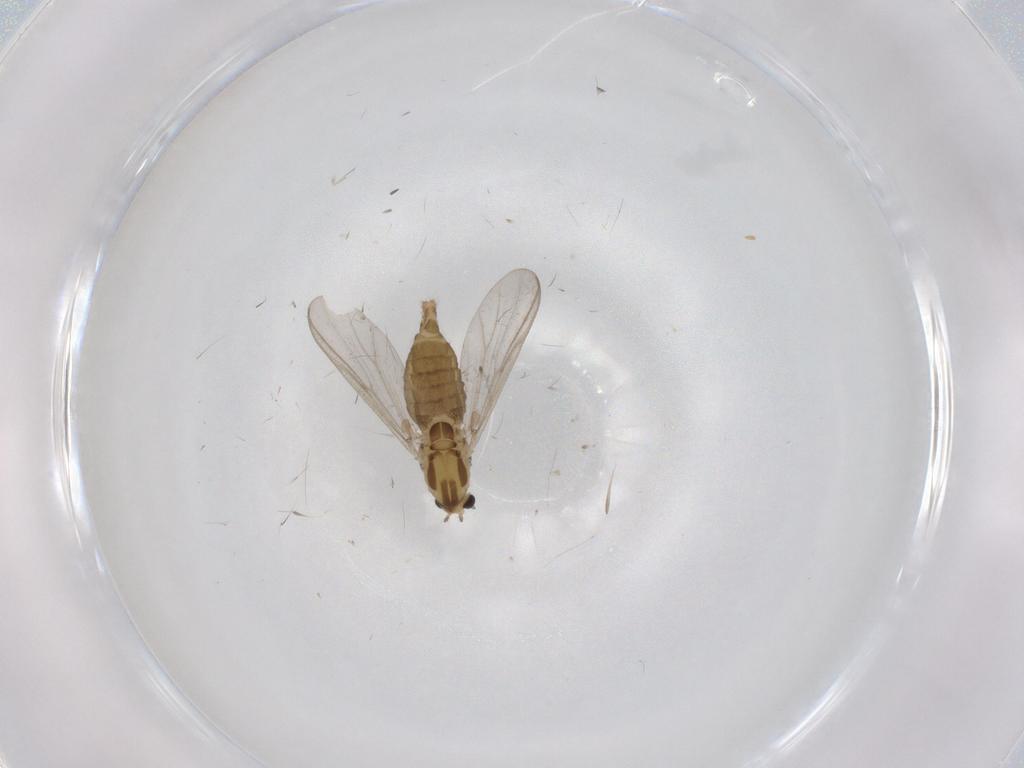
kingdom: Animalia
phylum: Arthropoda
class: Insecta
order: Diptera
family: Chironomidae
